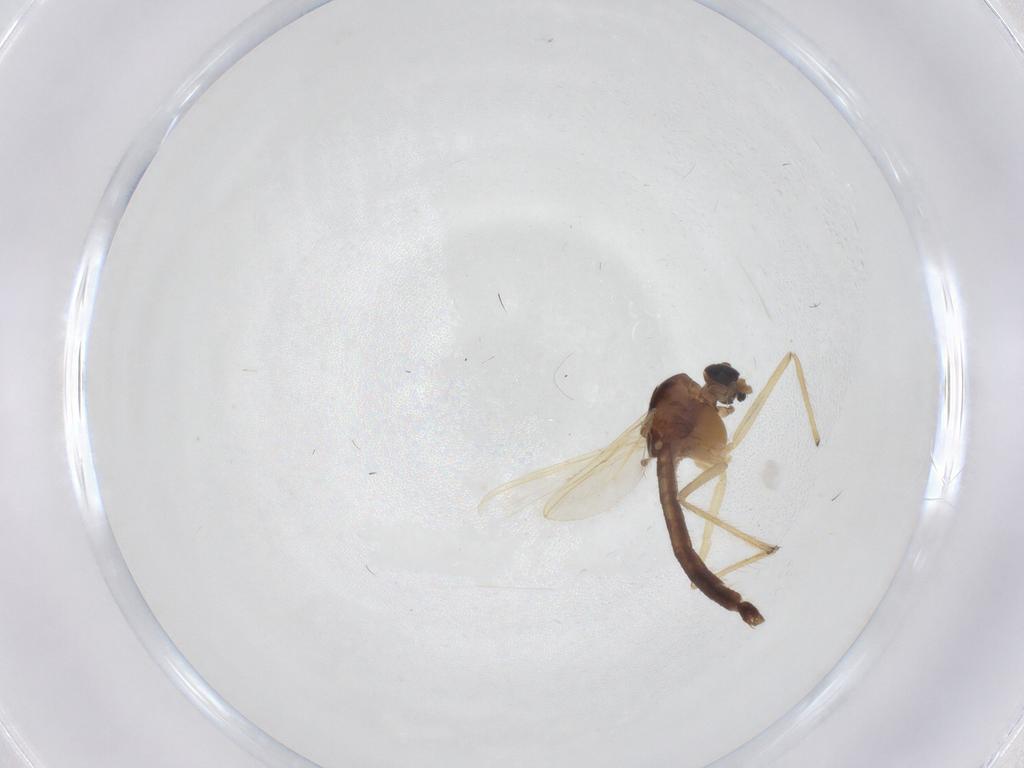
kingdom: Animalia
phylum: Arthropoda
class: Insecta
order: Diptera
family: Chironomidae
